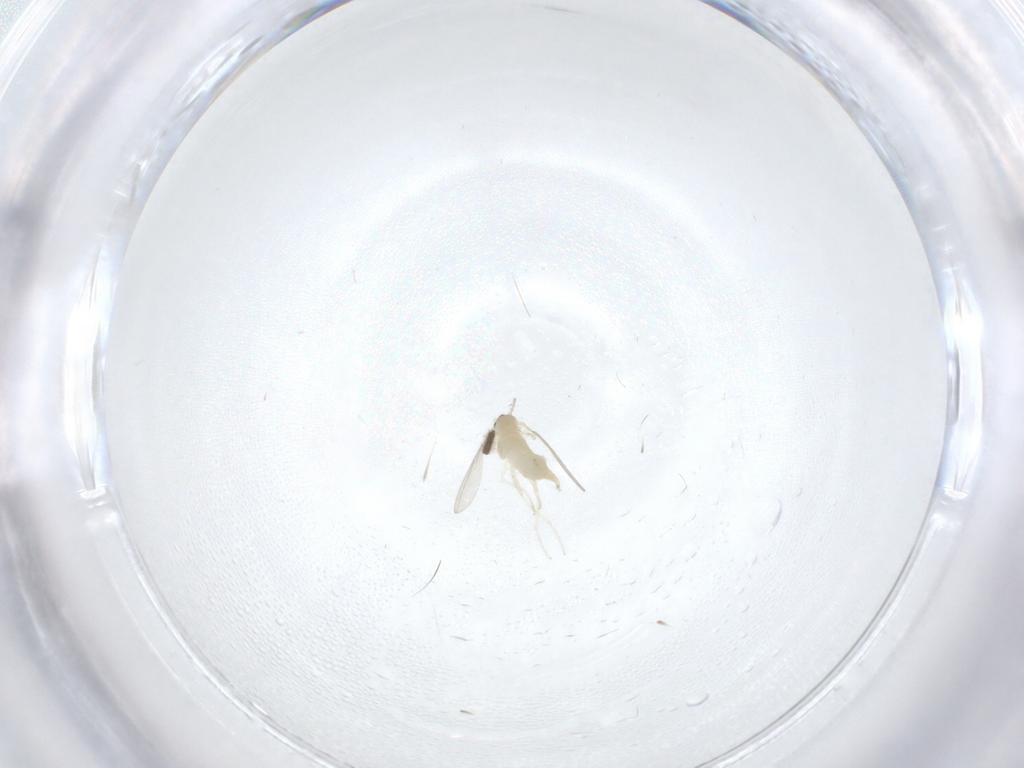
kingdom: Animalia
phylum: Arthropoda
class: Insecta
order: Diptera
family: Cecidomyiidae
